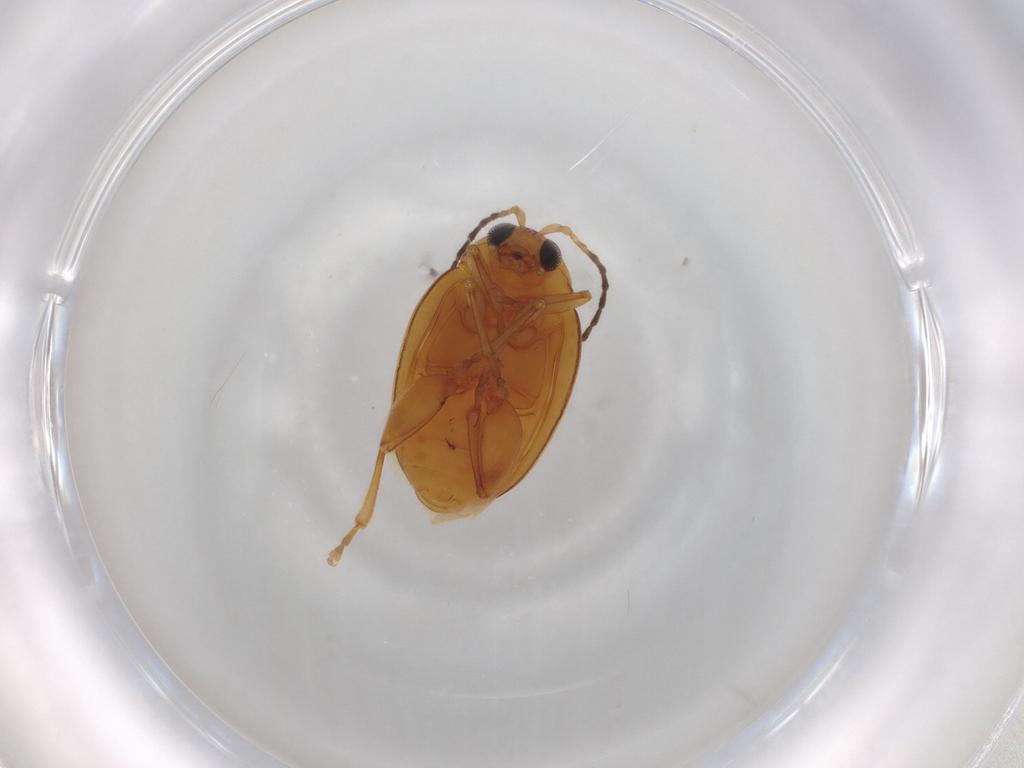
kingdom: Animalia
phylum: Arthropoda
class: Insecta
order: Coleoptera
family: Chrysomelidae
